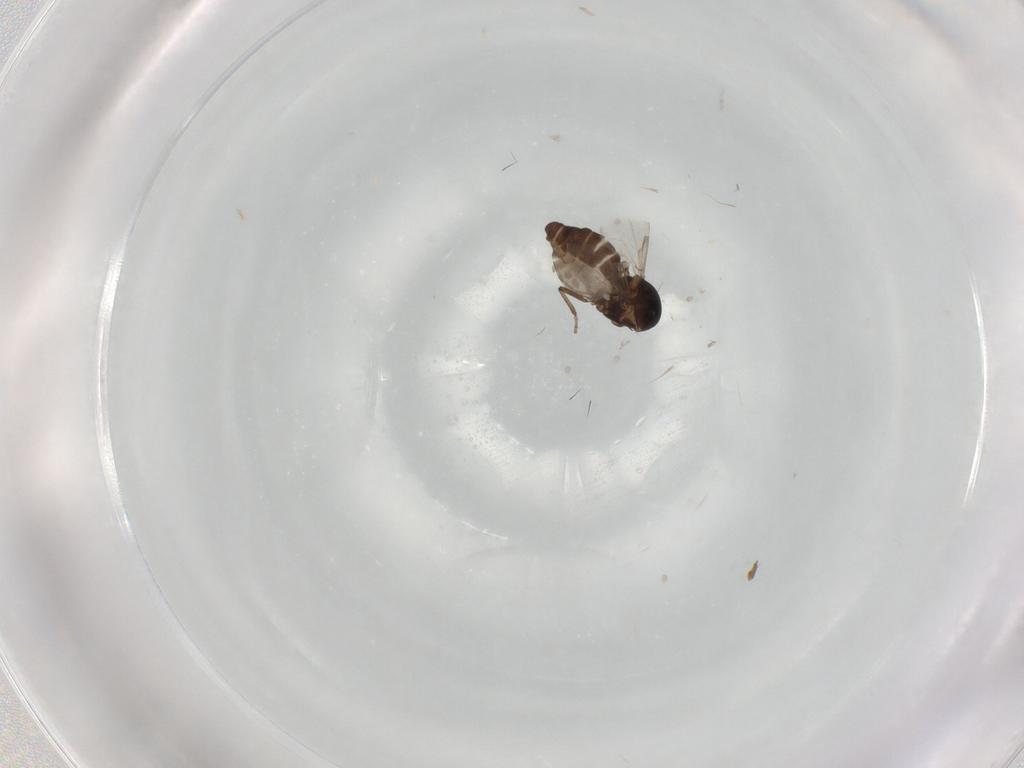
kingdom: Animalia
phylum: Arthropoda
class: Insecta
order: Diptera
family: Ceratopogonidae
